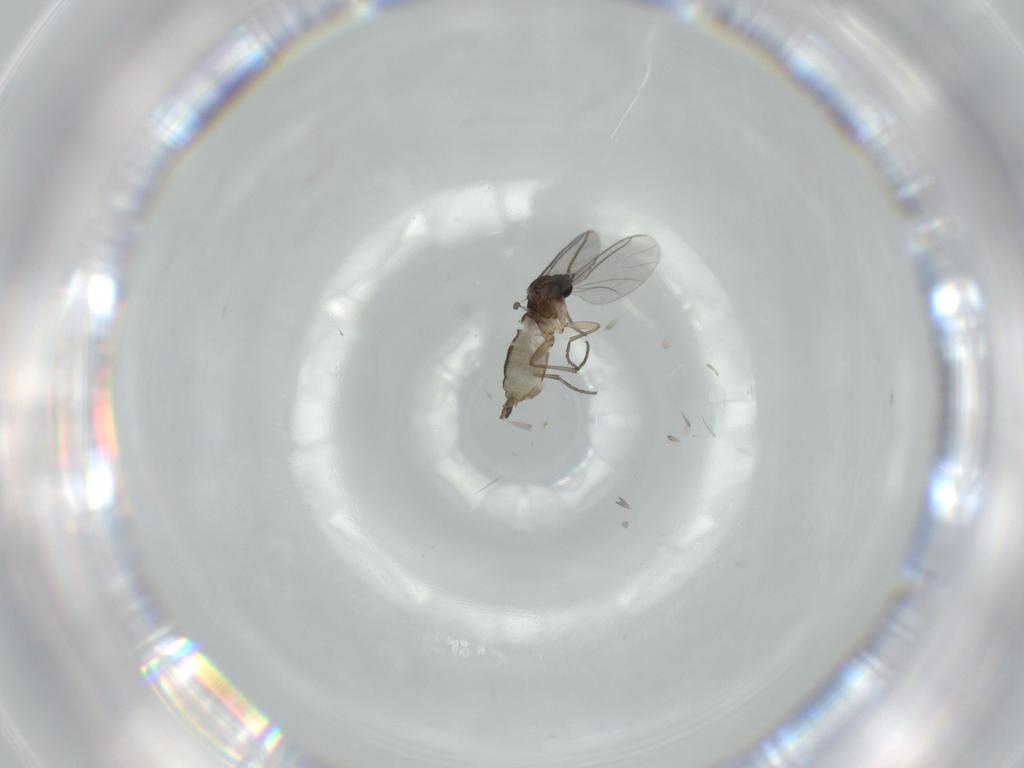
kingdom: Animalia
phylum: Arthropoda
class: Insecta
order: Diptera
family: Sciaridae
